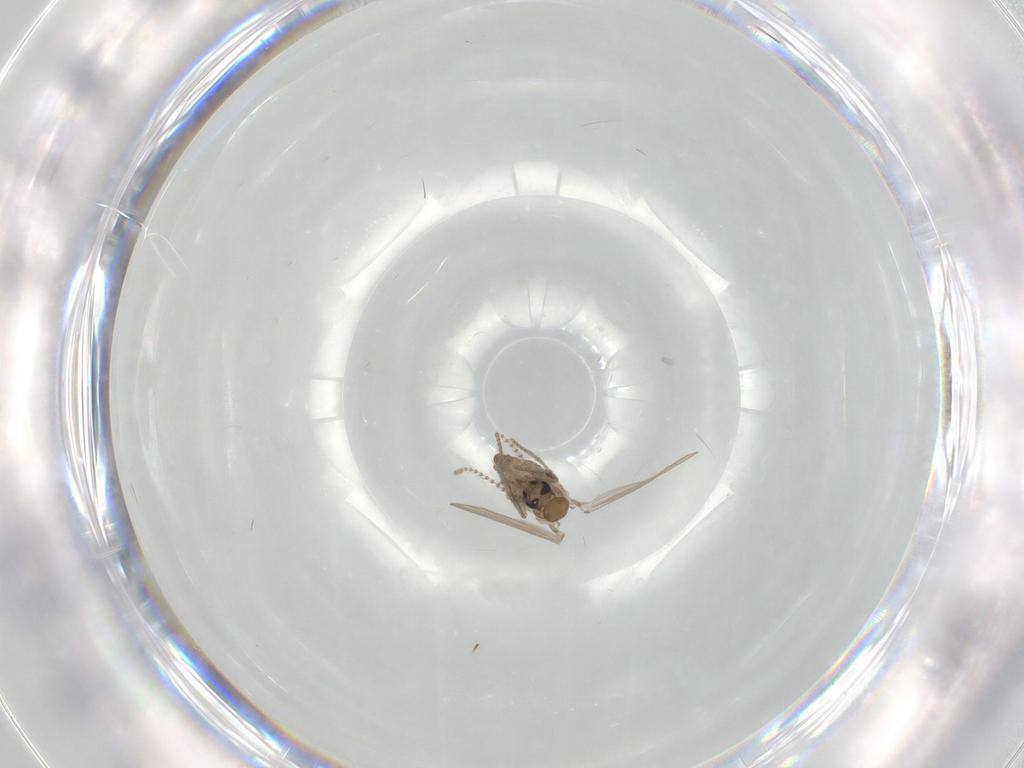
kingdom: Animalia
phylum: Arthropoda
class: Insecta
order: Diptera
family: Psychodidae
